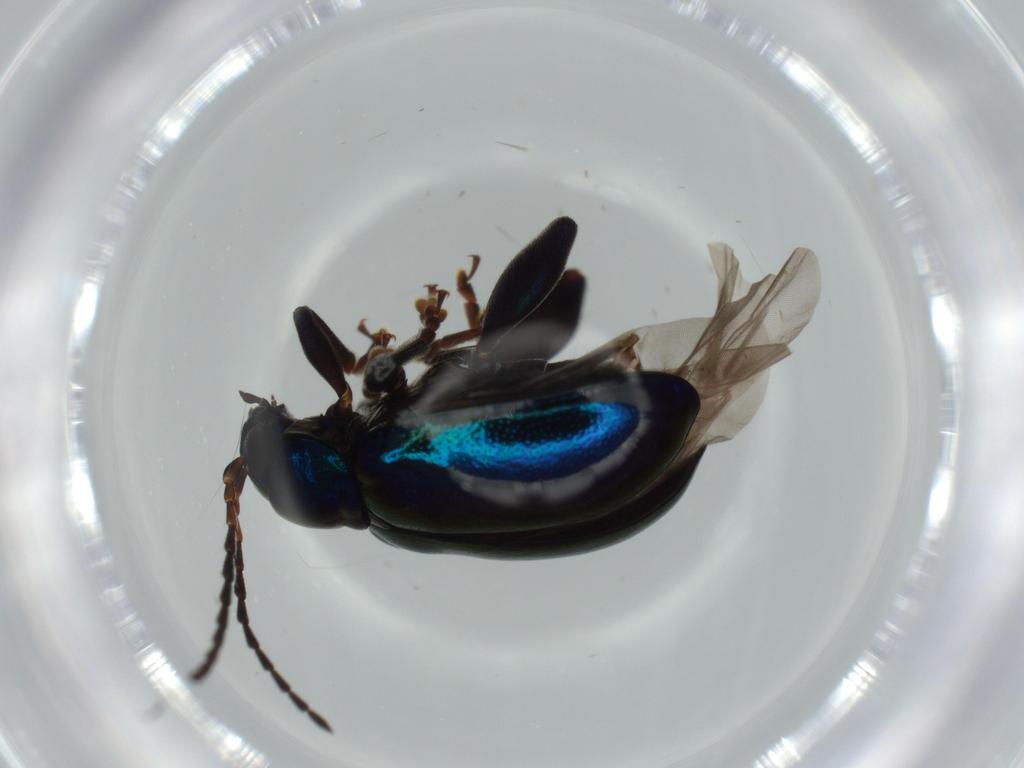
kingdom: Animalia
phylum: Arthropoda
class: Insecta
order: Coleoptera
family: Chrysomelidae
